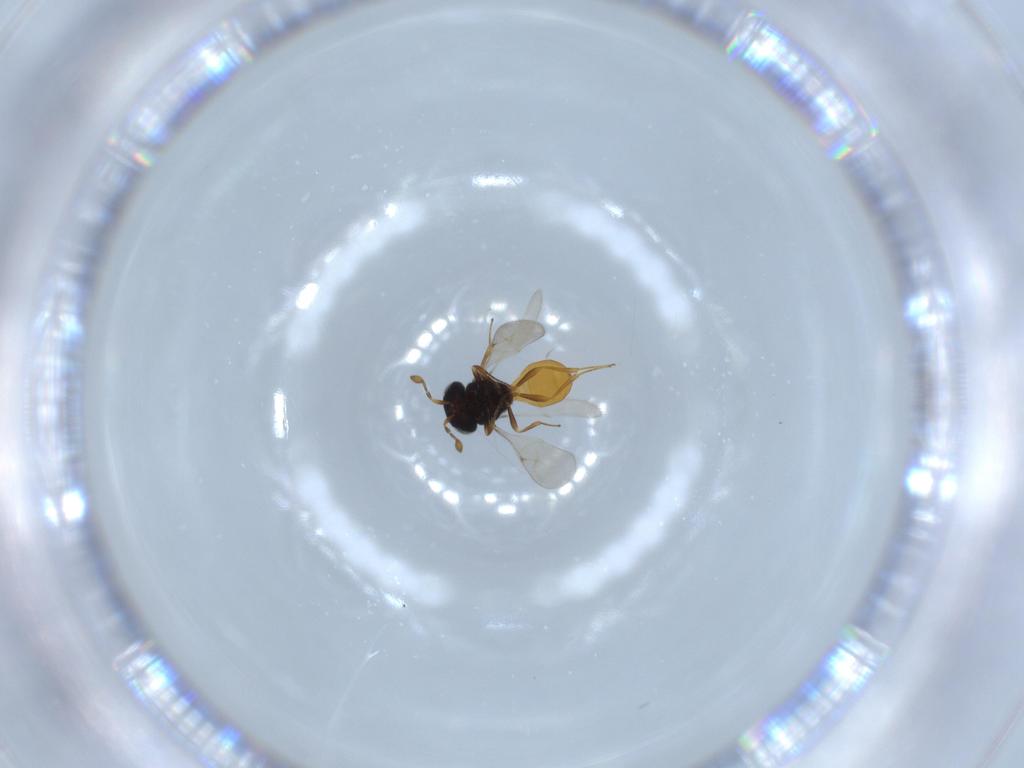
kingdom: Animalia
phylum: Arthropoda
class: Insecta
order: Hymenoptera
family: Scelionidae
